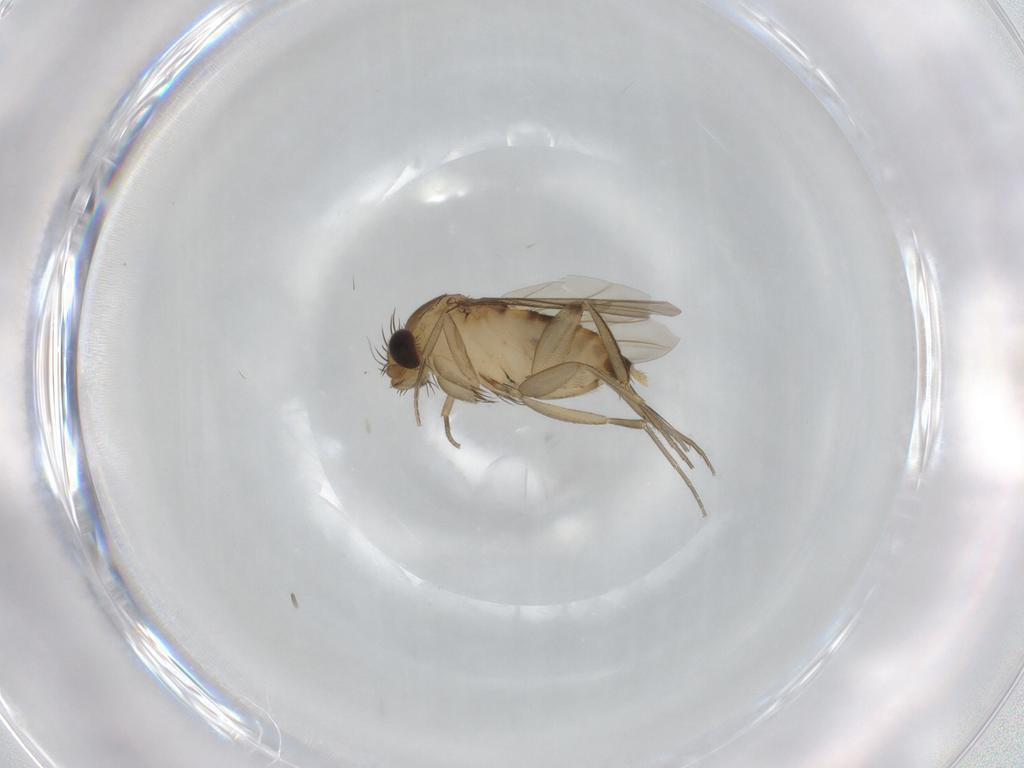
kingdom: Animalia
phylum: Arthropoda
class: Insecta
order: Diptera
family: Phoridae
